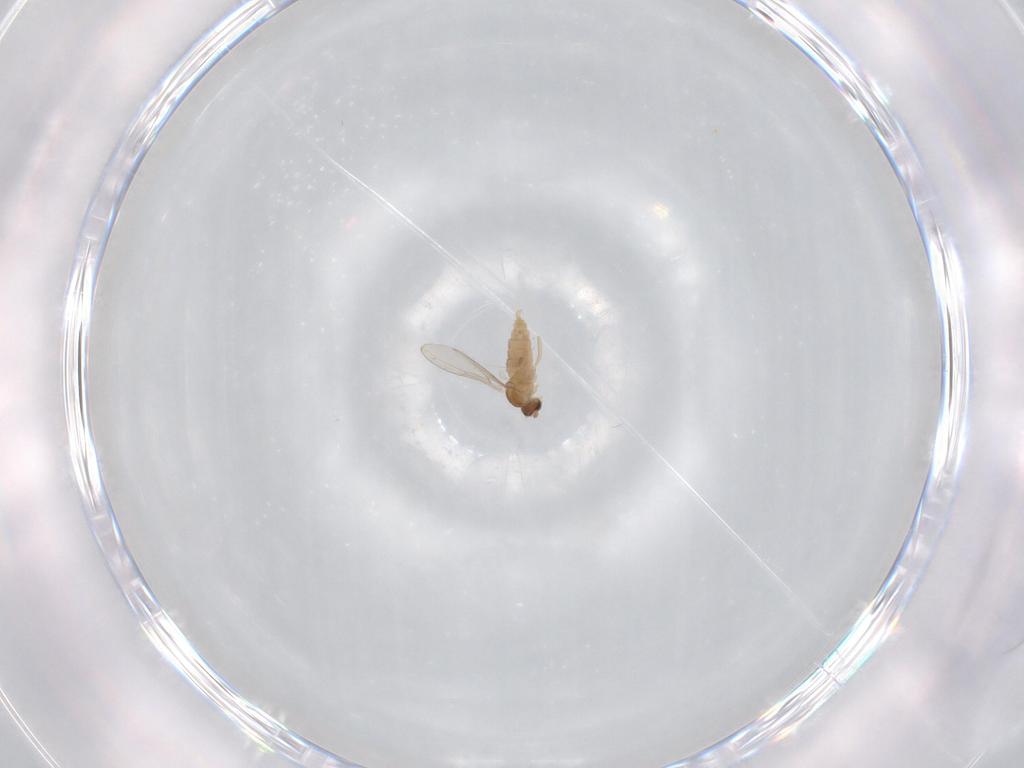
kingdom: Animalia
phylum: Arthropoda
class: Insecta
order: Diptera
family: Cecidomyiidae
